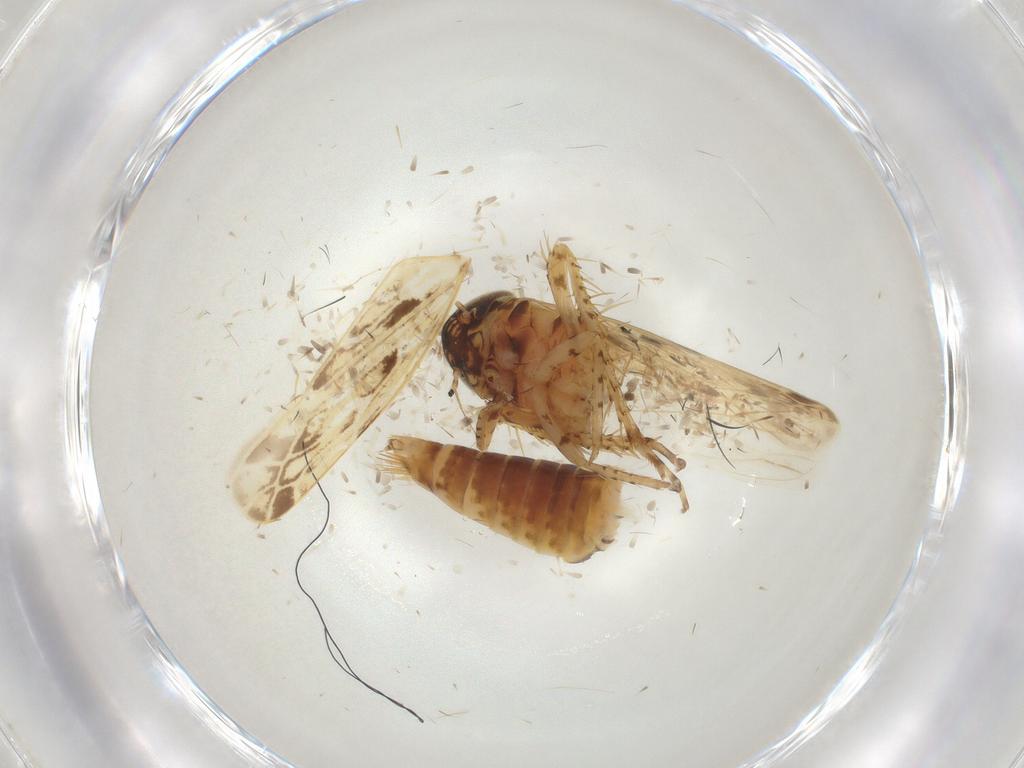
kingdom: Animalia
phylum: Arthropoda
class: Insecta
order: Hemiptera
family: Cicadellidae
